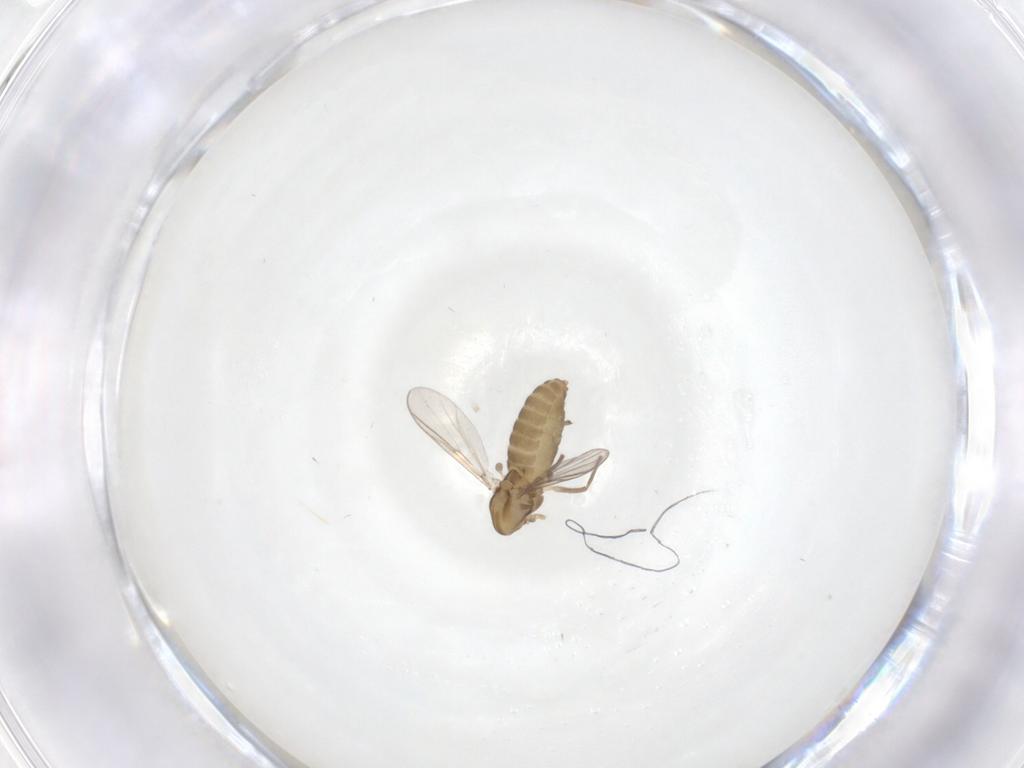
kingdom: Animalia
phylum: Arthropoda
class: Insecta
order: Diptera
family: Chironomidae
